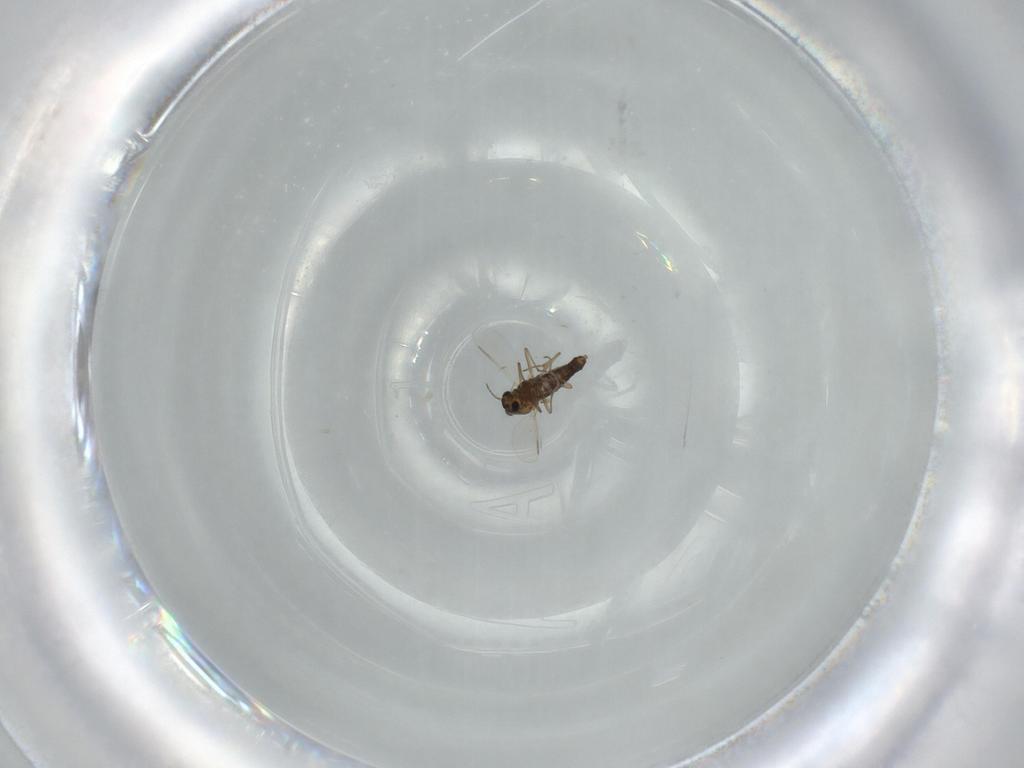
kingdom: Animalia
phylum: Arthropoda
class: Insecta
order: Diptera
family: Chironomidae
